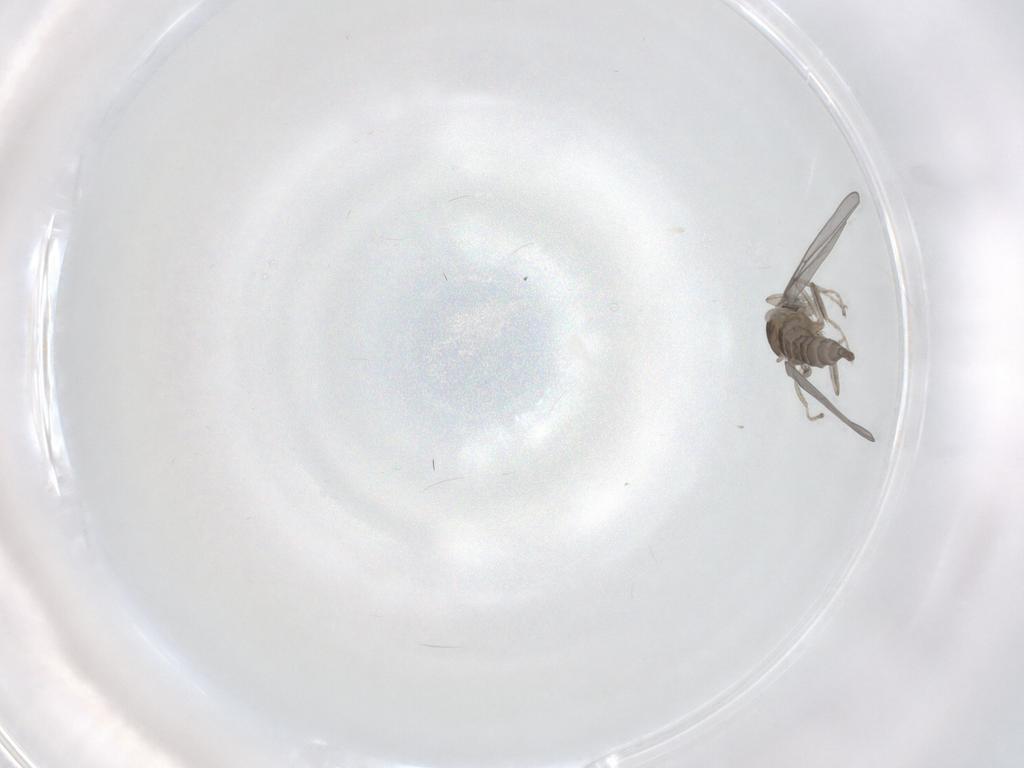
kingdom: Animalia
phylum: Arthropoda
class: Insecta
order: Diptera
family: Cecidomyiidae
